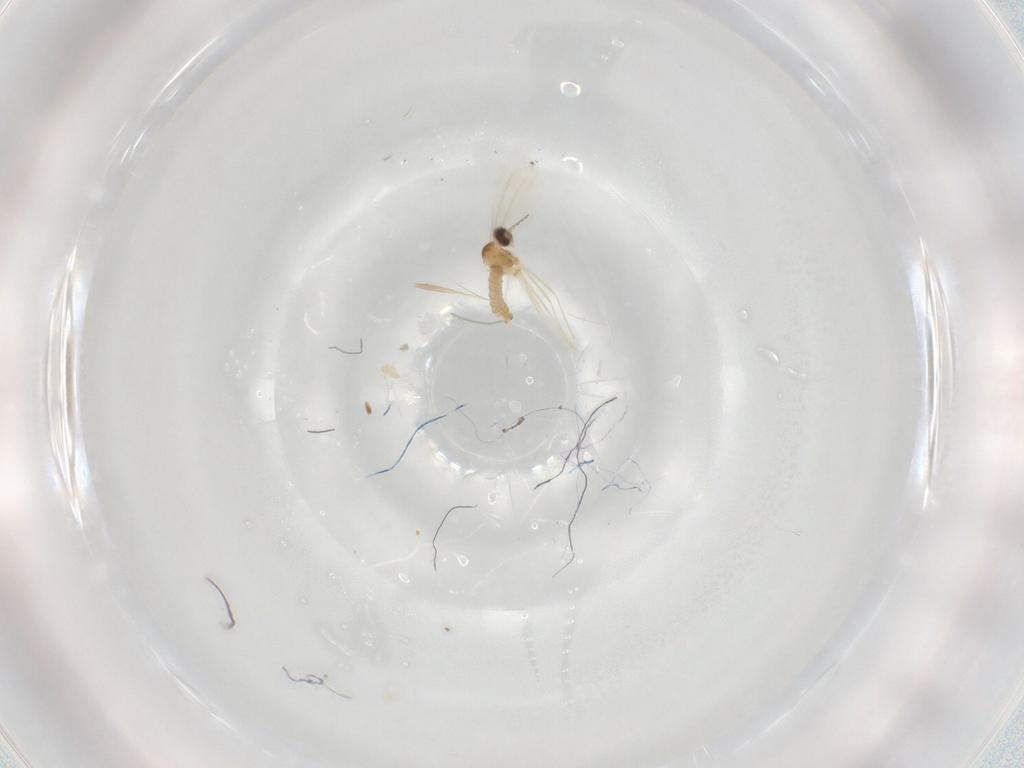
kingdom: Animalia
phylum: Arthropoda
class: Insecta
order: Diptera
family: Cecidomyiidae
